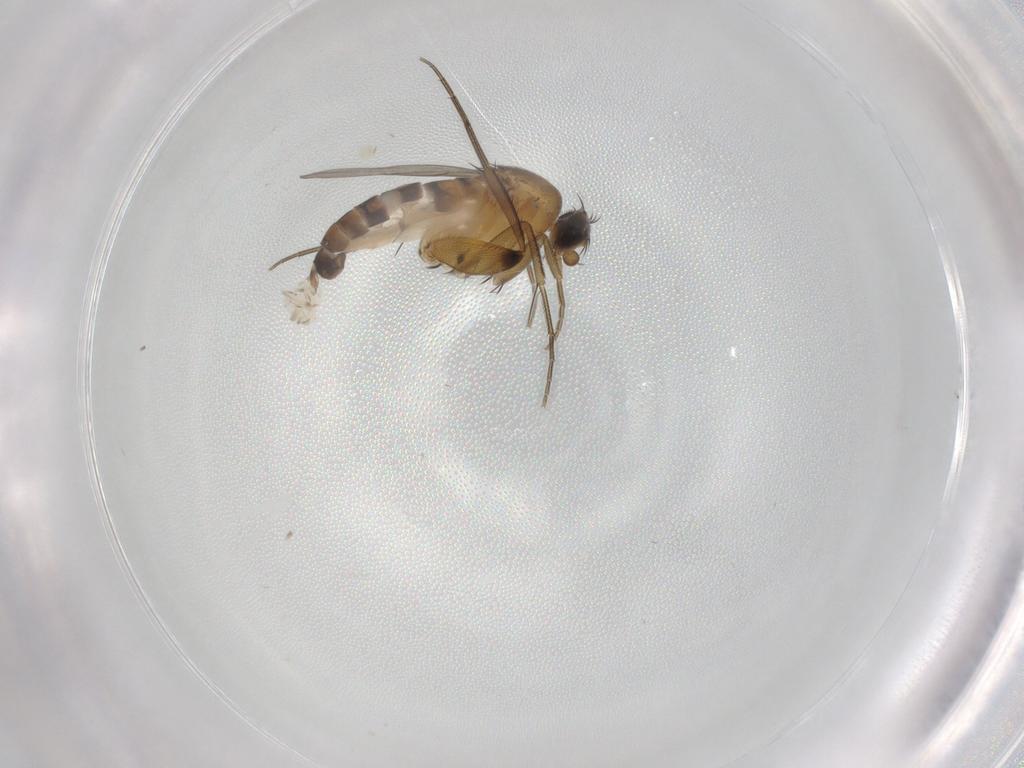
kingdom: Animalia
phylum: Arthropoda
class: Insecta
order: Diptera
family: Phoridae
